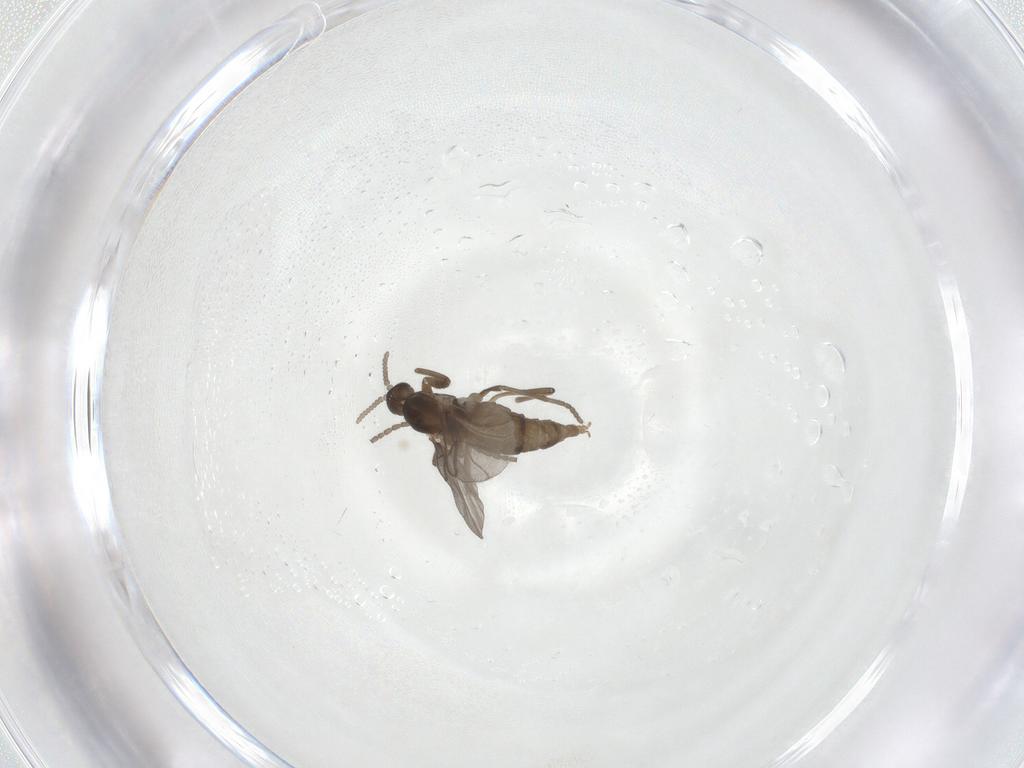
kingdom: Animalia
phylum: Arthropoda
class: Insecta
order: Diptera
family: Cecidomyiidae
